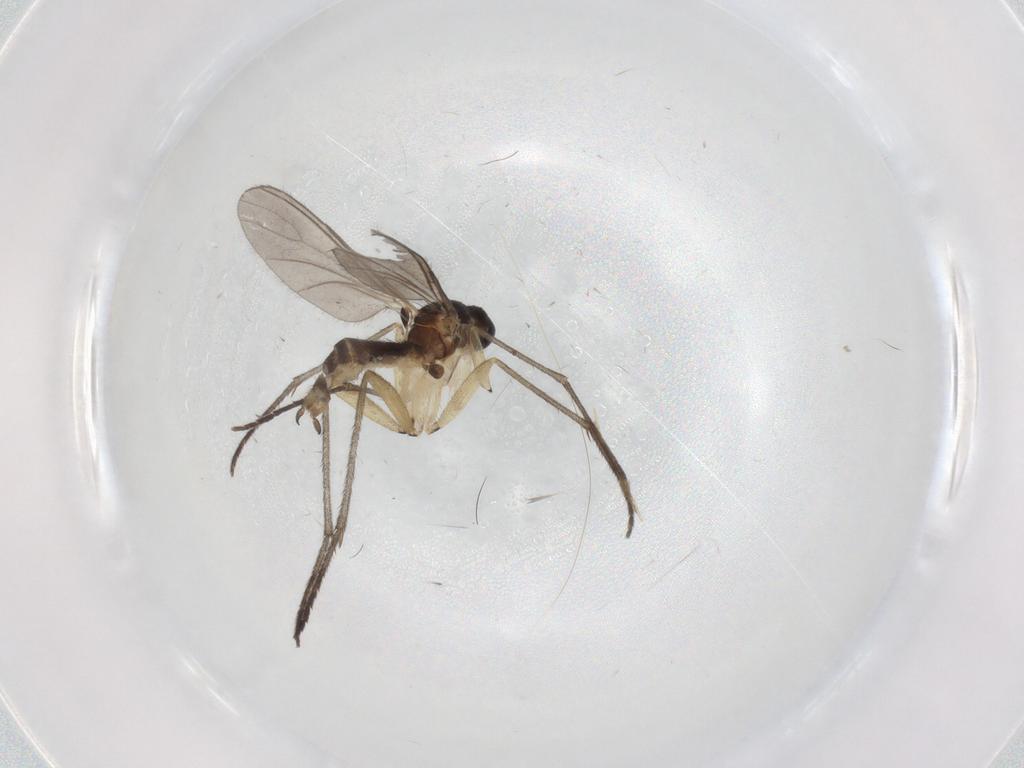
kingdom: Animalia
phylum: Arthropoda
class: Insecta
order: Diptera
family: Sciaridae
